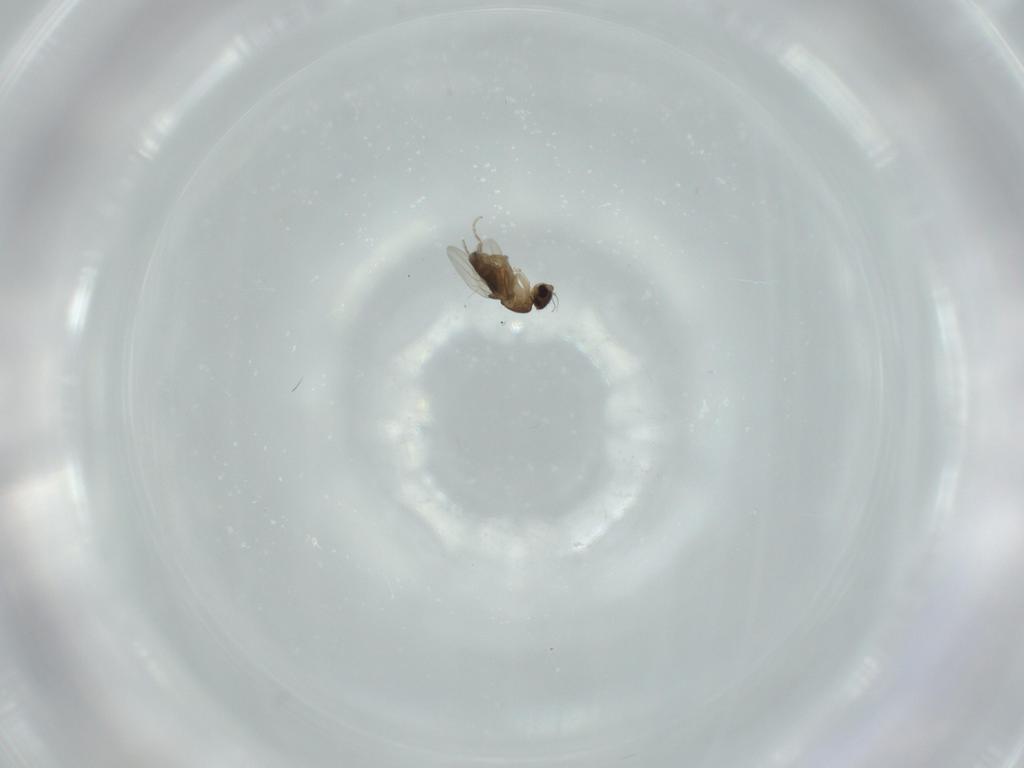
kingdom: Animalia
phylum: Arthropoda
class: Insecta
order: Diptera
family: Phoridae
